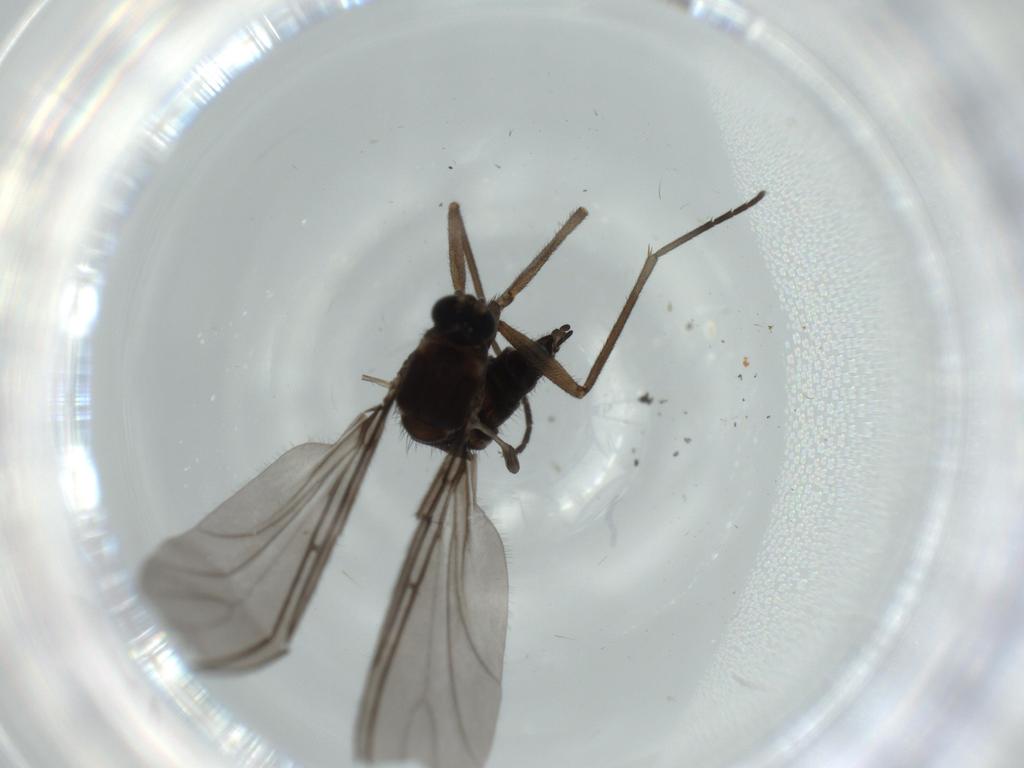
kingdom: Animalia
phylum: Arthropoda
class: Insecta
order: Diptera
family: Sciaridae
